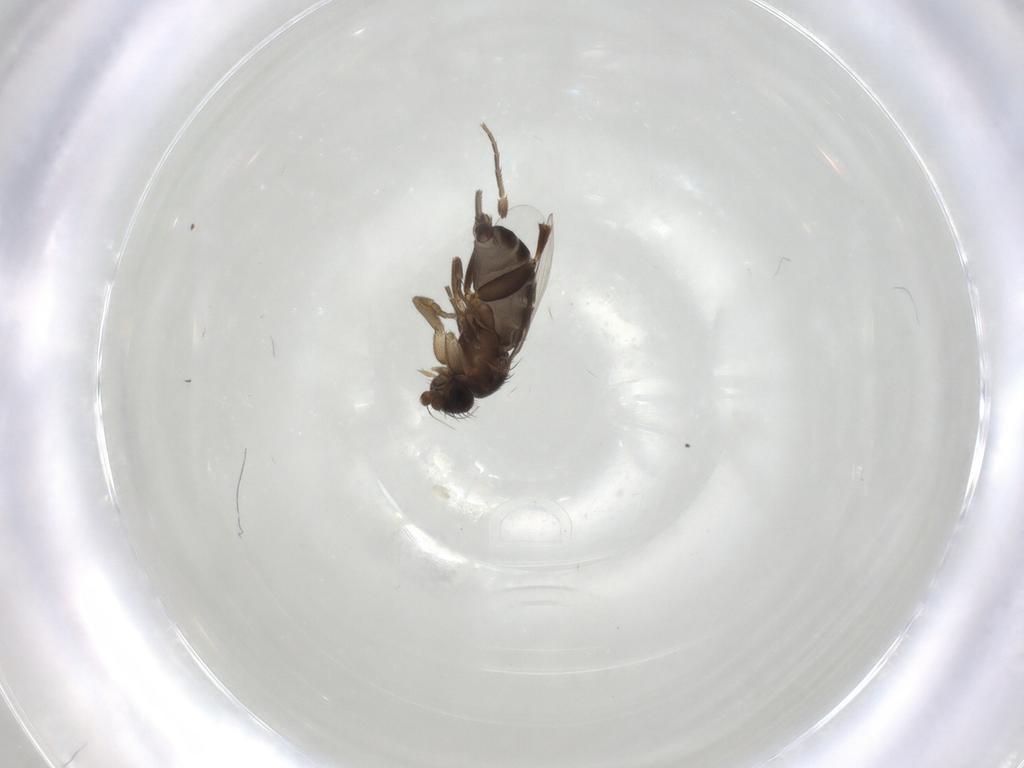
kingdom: Animalia
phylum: Arthropoda
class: Insecta
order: Diptera
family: Phoridae
